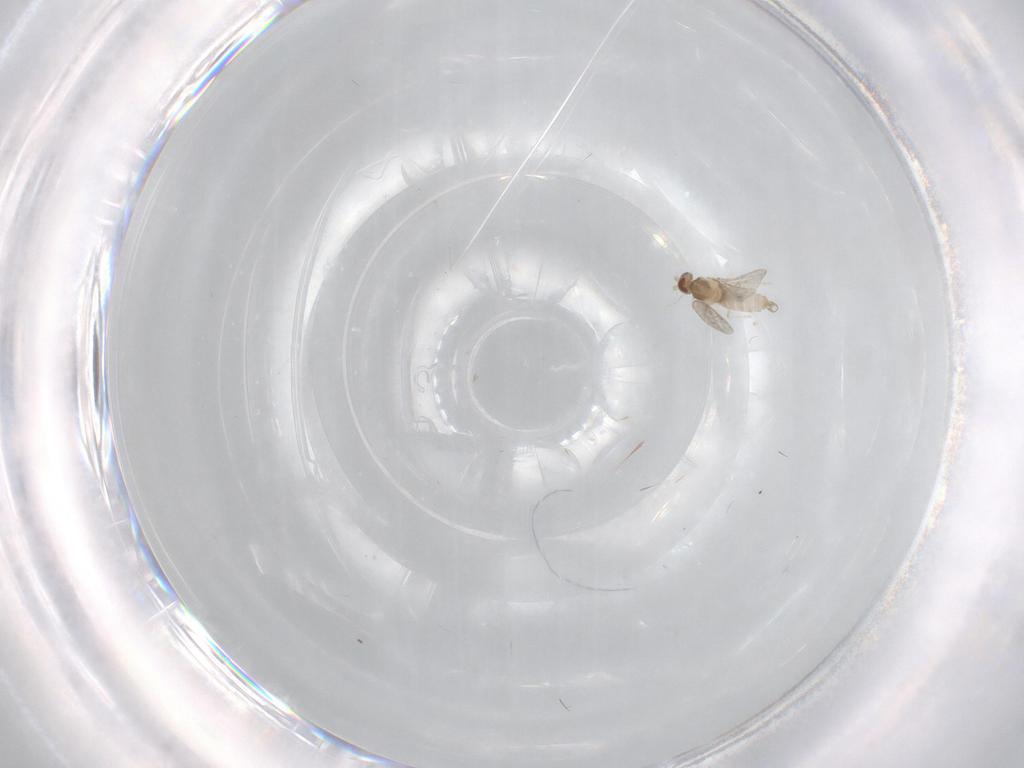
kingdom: Animalia
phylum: Arthropoda
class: Insecta
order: Diptera
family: Cecidomyiidae
